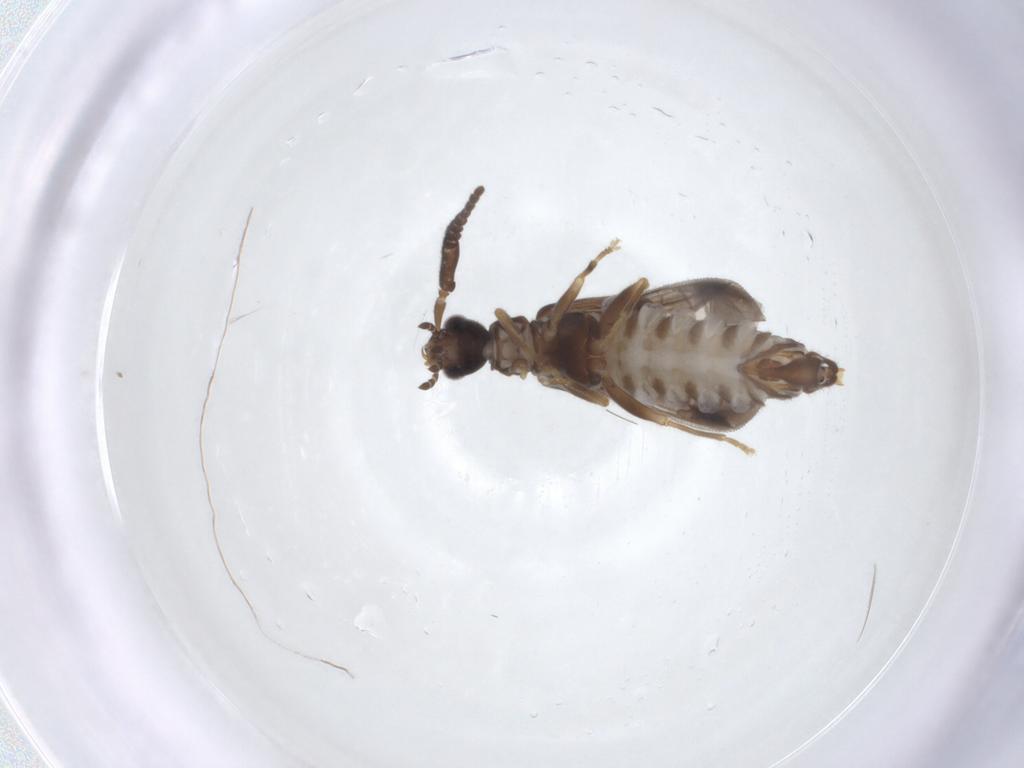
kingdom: Animalia
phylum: Arthropoda
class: Insecta
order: Coleoptera
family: Cantharidae
